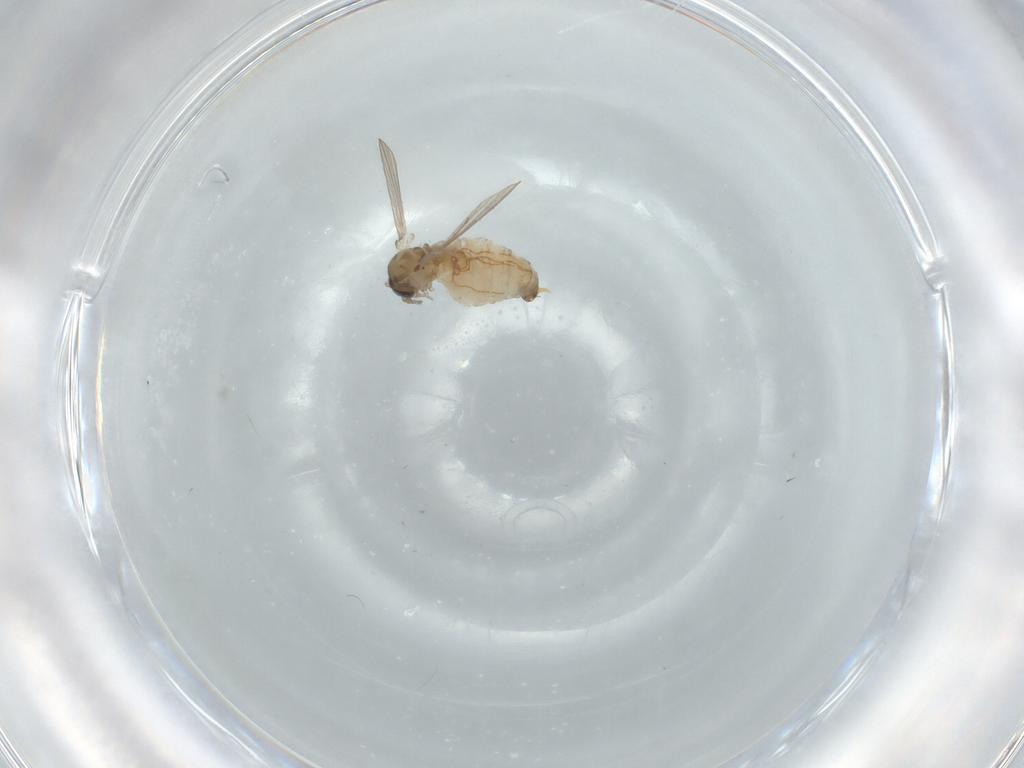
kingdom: Animalia
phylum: Arthropoda
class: Insecta
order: Diptera
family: Psychodidae
